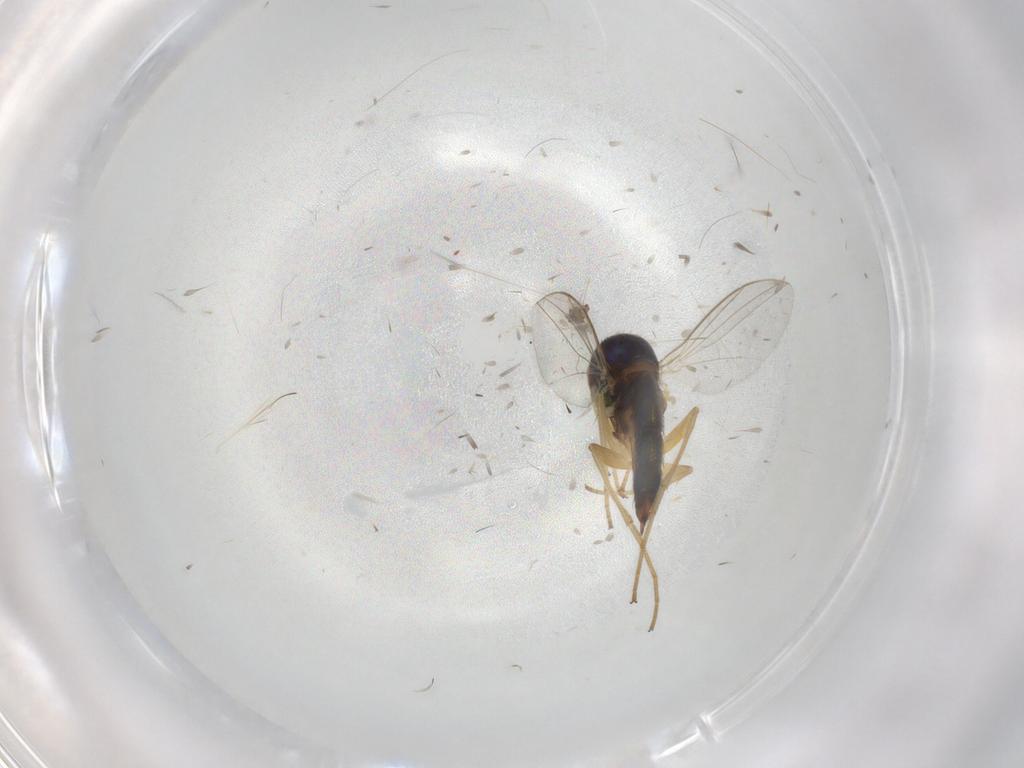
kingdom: Animalia
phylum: Arthropoda
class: Insecta
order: Diptera
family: Dolichopodidae
